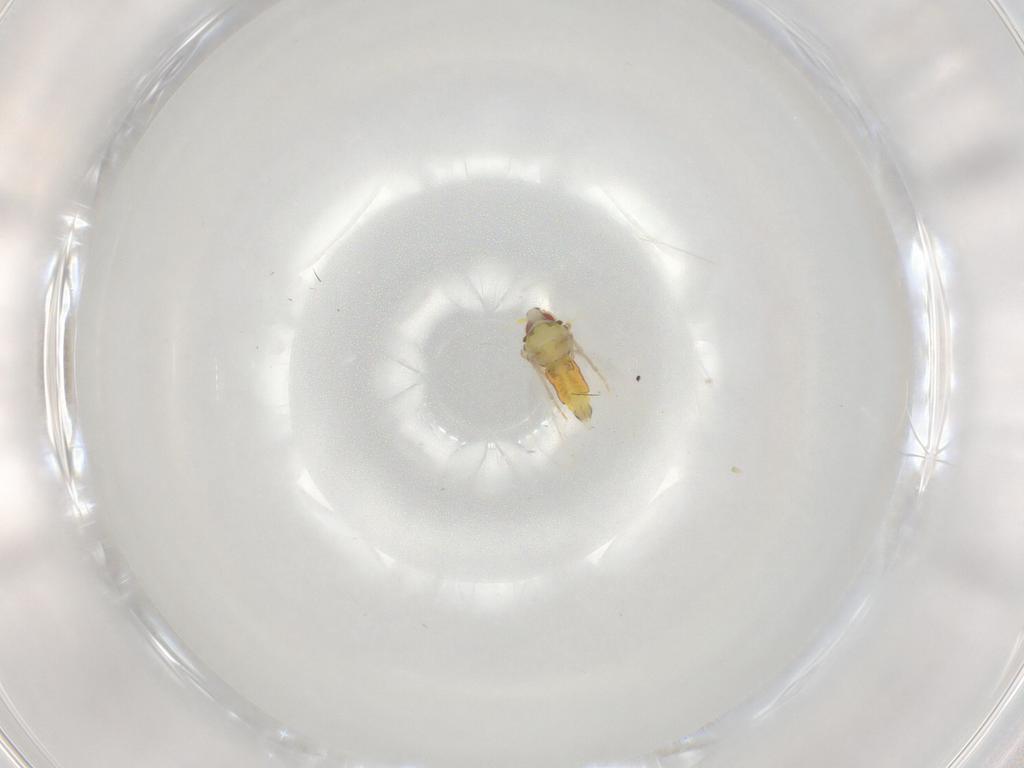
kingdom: Animalia
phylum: Arthropoda
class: Insecta
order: Hemiptera
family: Aleyrodidae
